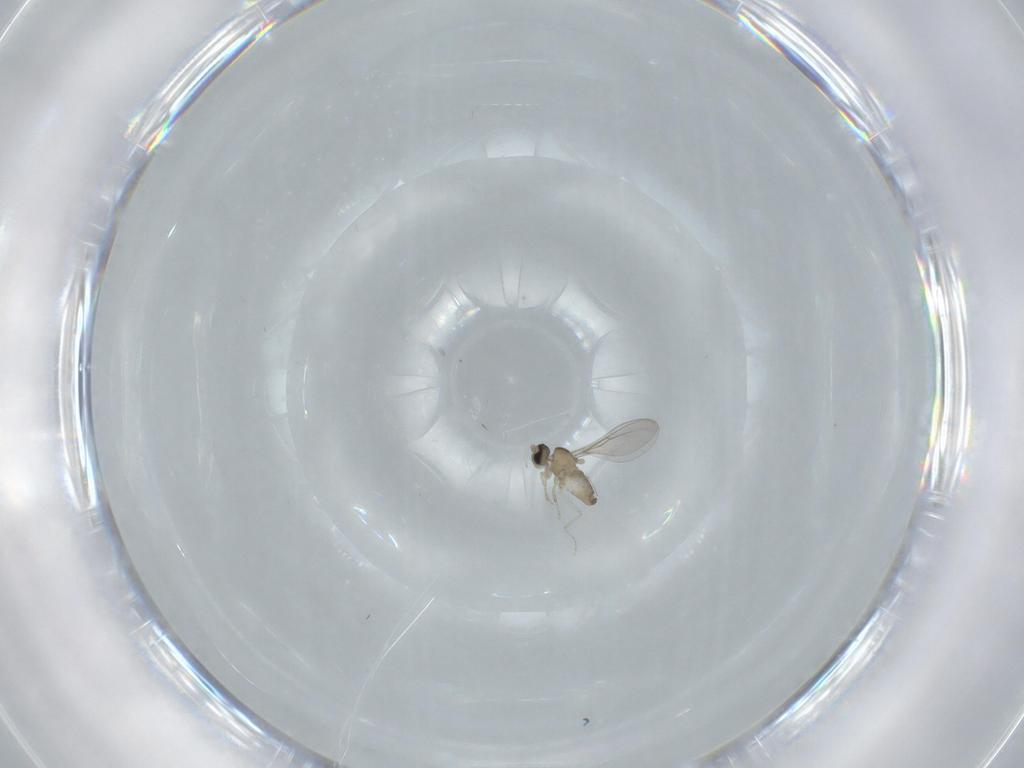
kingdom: Animalia
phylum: Arthropoda
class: Insecta
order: Diptera
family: Cecidomyiidae
